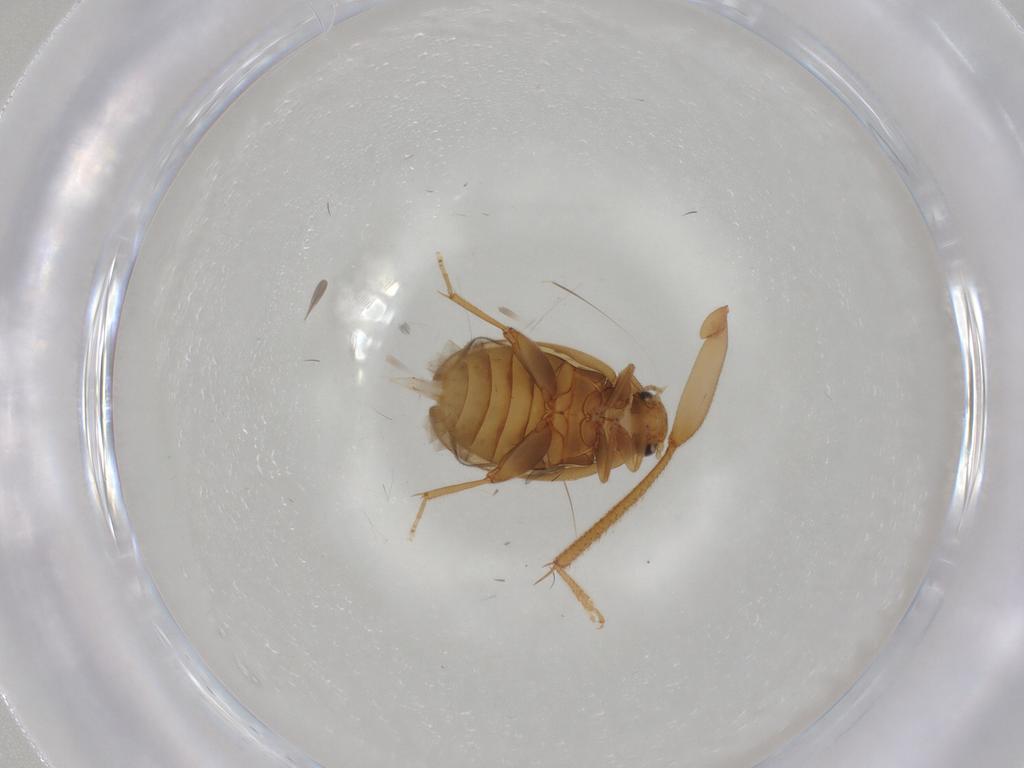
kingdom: Animalia
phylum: Arthropoda
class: Insecta
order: Coleoptera
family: Ptilodactylidae
